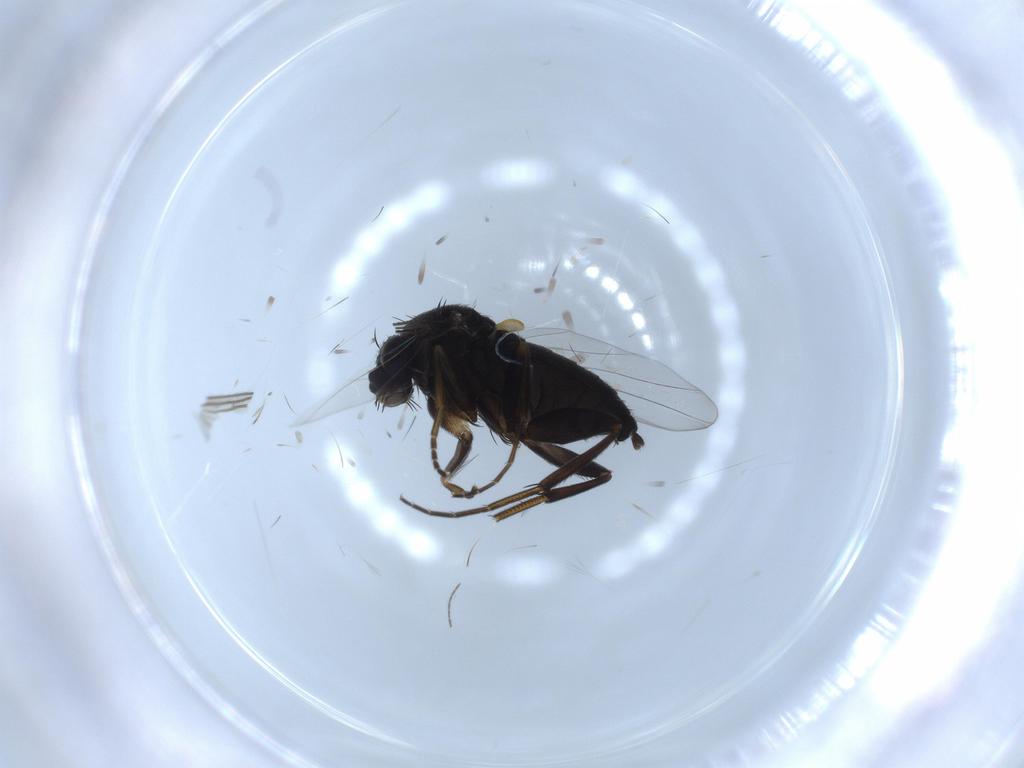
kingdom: Animalia
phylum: Arthropoda
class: Insecta
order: Diptera
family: Phoridae
